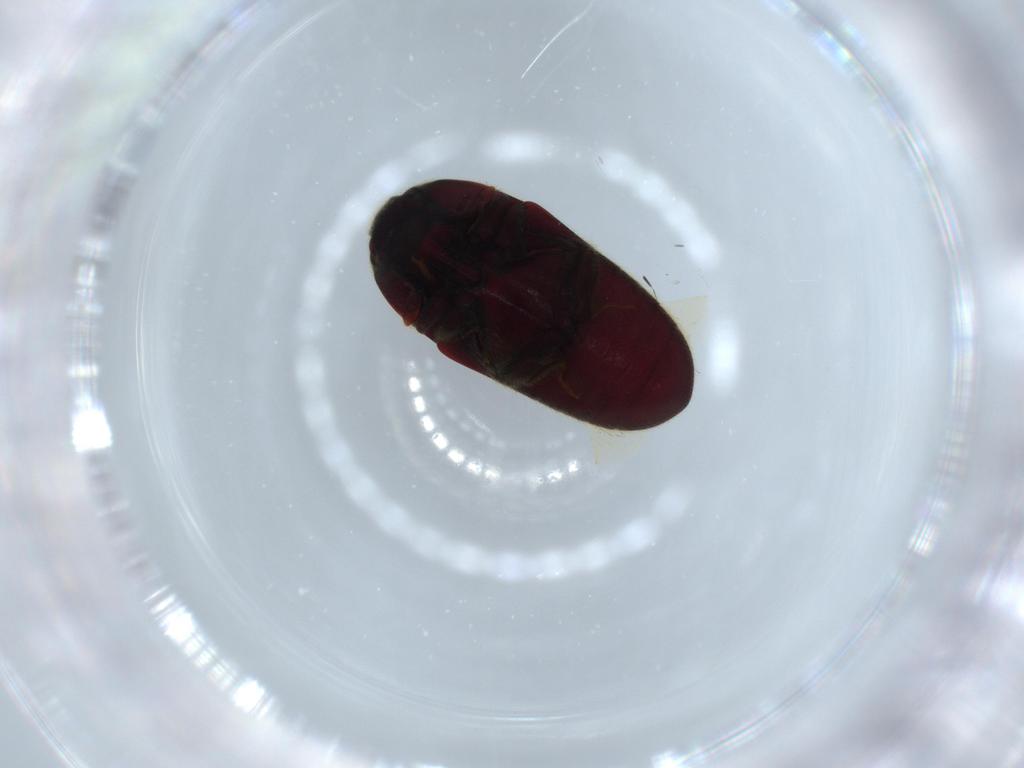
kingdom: Animalia
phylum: Arthropoda
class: Insecta
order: Coleoptera
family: Throscidae
